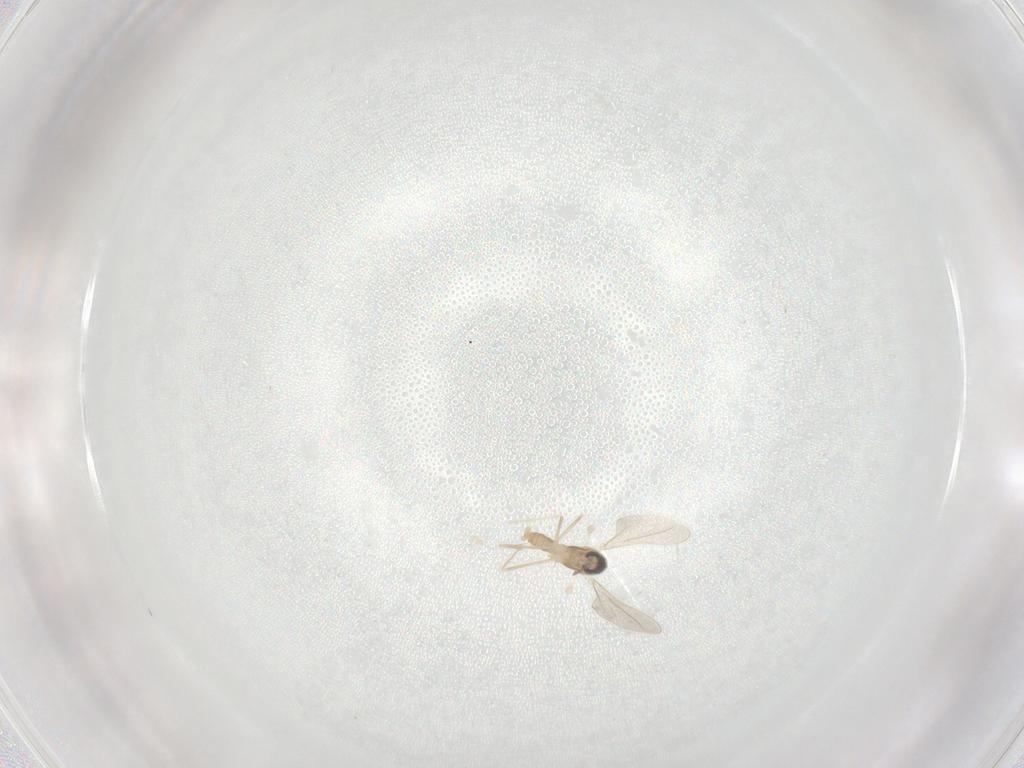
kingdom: Animalia
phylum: Arthropoda
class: Insecta
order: Diptera
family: Cecidomyiidae
